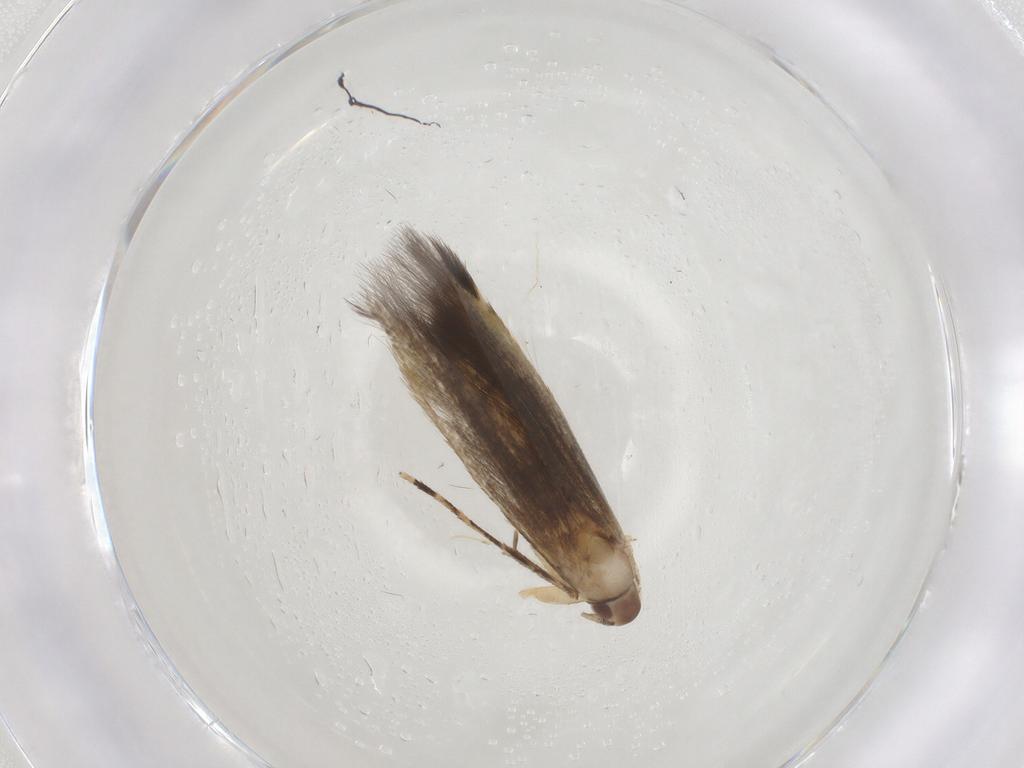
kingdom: Animalia
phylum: Arthropoda
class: Insecta
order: Lepidoptera
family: Cosmopterigidae
